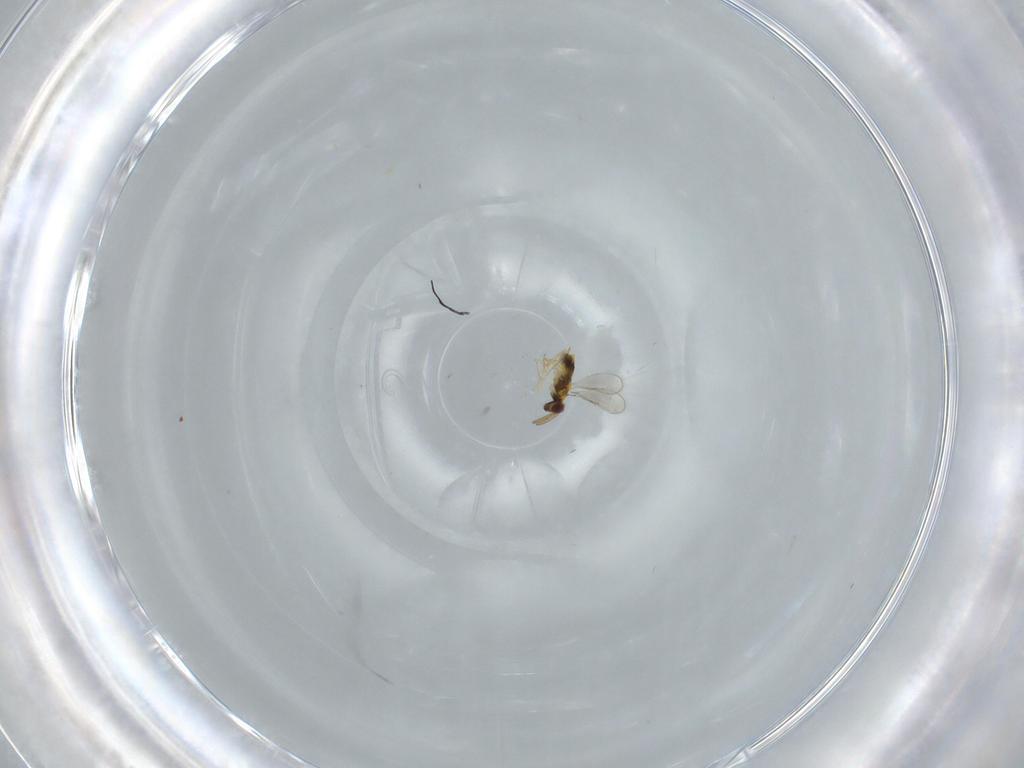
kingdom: Animalia
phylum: Arthropoda
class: Insecta
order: Hymenoptera
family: Aphelinidae
